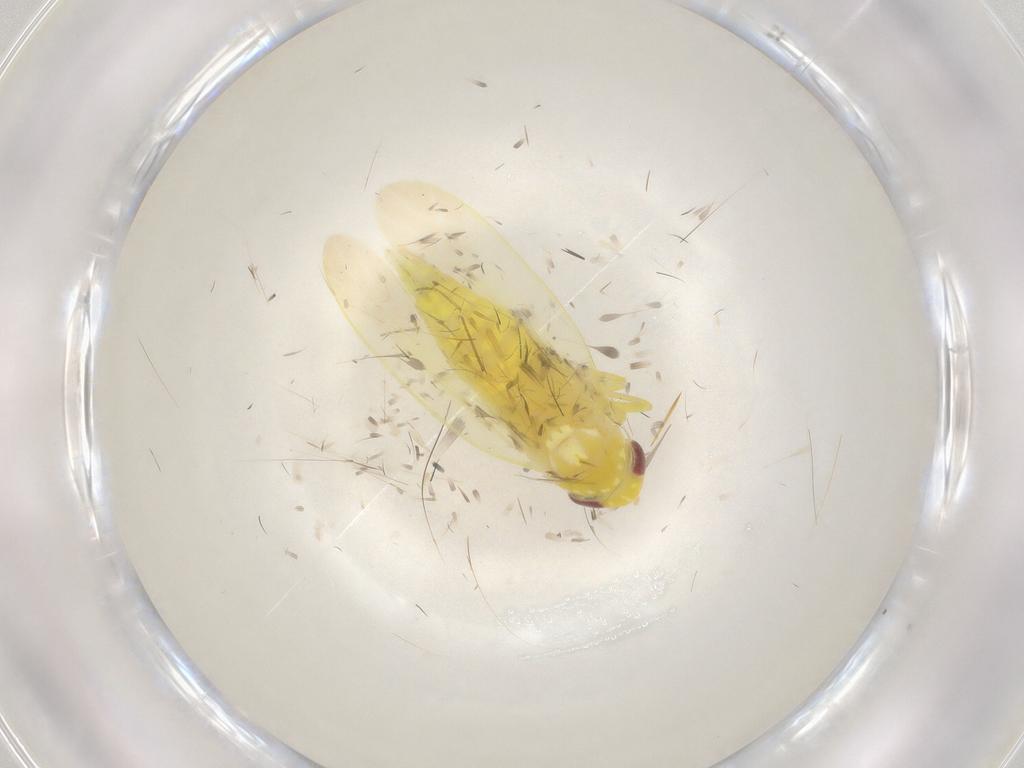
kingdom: Animalia
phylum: Arthropoda
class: Insecta
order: Hemiptera
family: Cicadellidae
